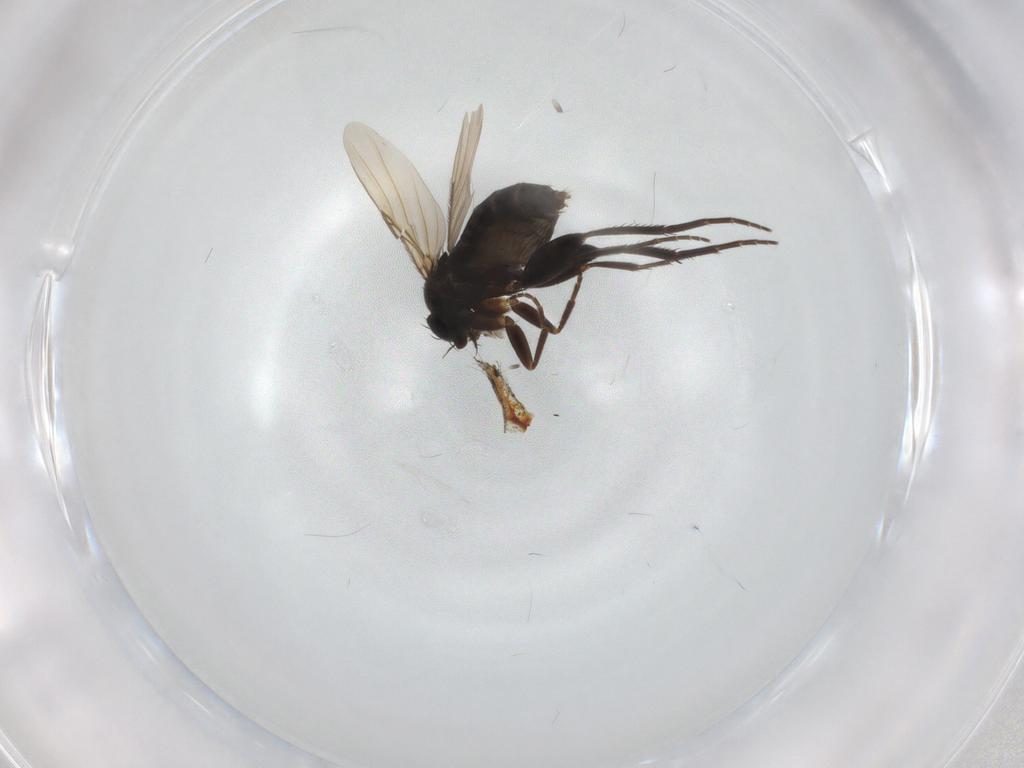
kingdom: Animalia
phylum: Arthropoda
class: Insecta
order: Diptera
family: Chironomidae
